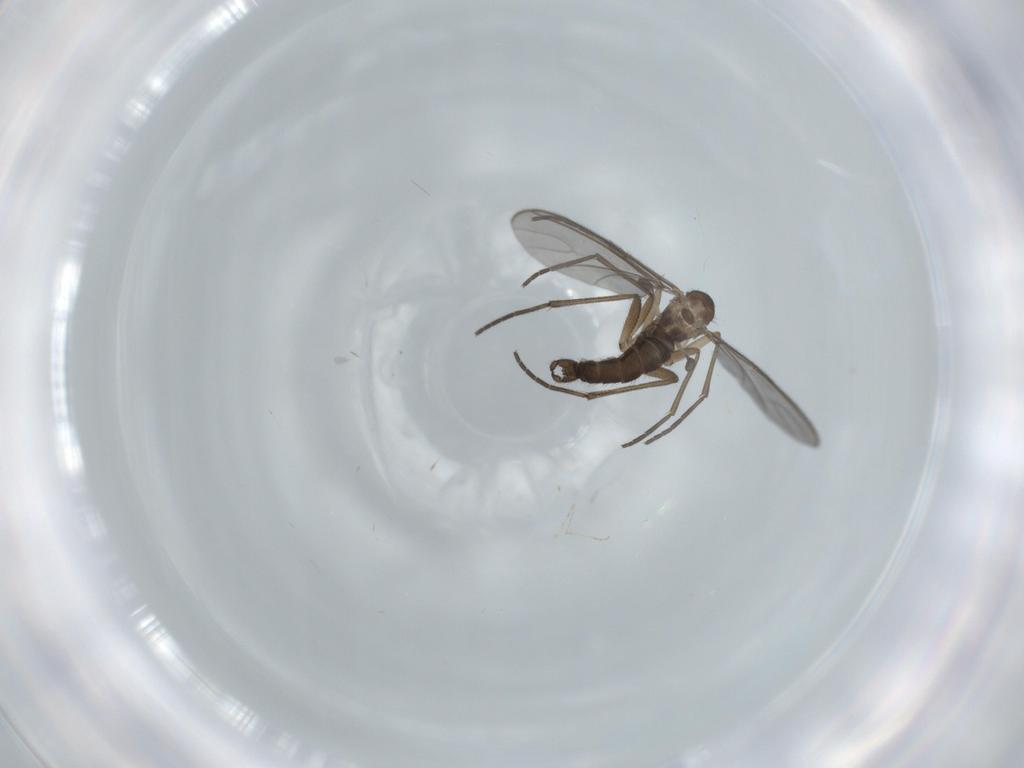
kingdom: Animalia
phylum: Arthropoda
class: Insecta
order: Diptera
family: Sciaridae
